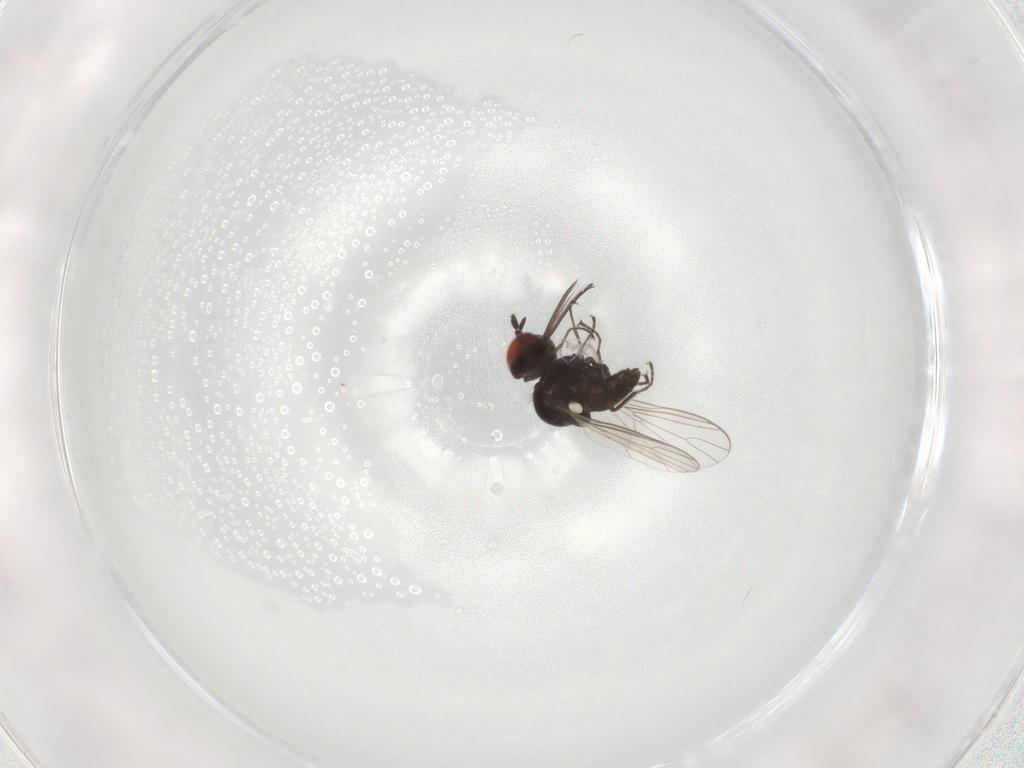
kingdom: Animalia
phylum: Arthropoda
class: Insecta
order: Diptera
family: Bombyliidae
